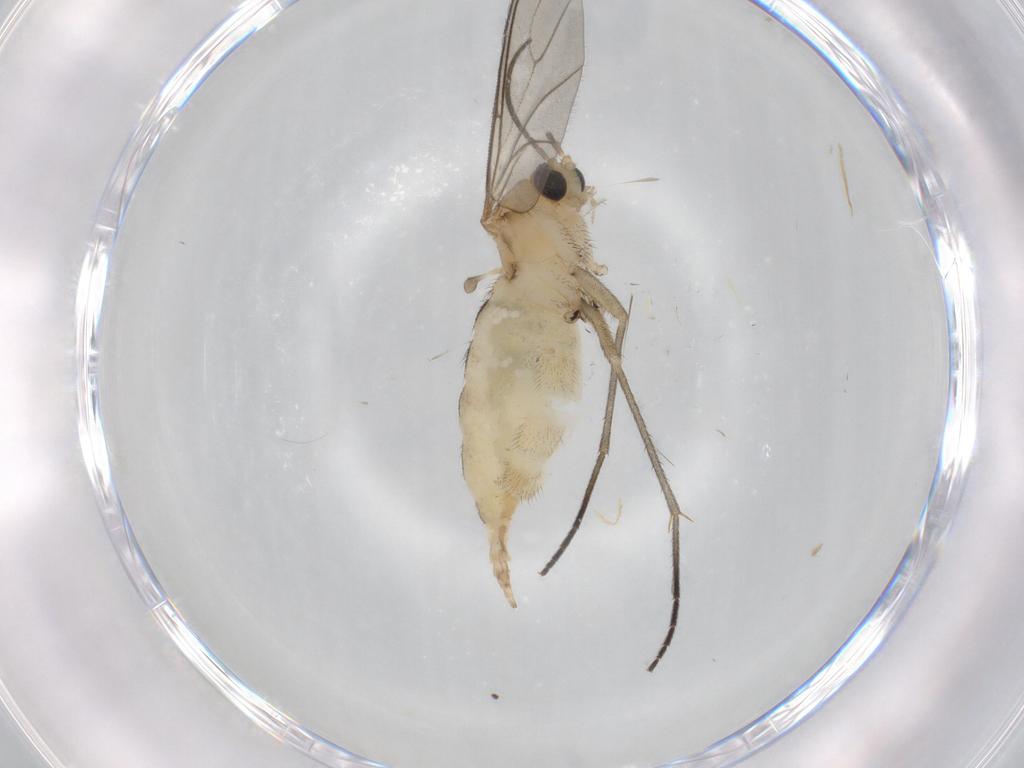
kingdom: Animalia
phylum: Arthropoda
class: Insecta
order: Diptera
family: Sciaridae
